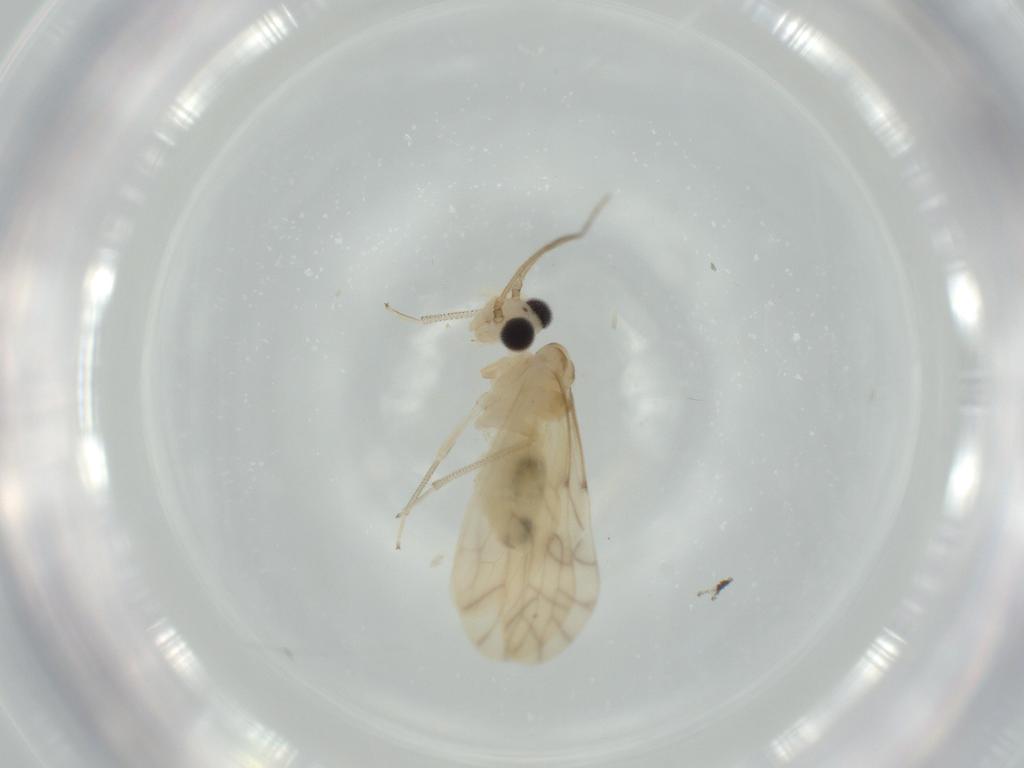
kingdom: Animalia
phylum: Arthropoda
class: Insecta
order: Psocodea
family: Caeciliusidae
